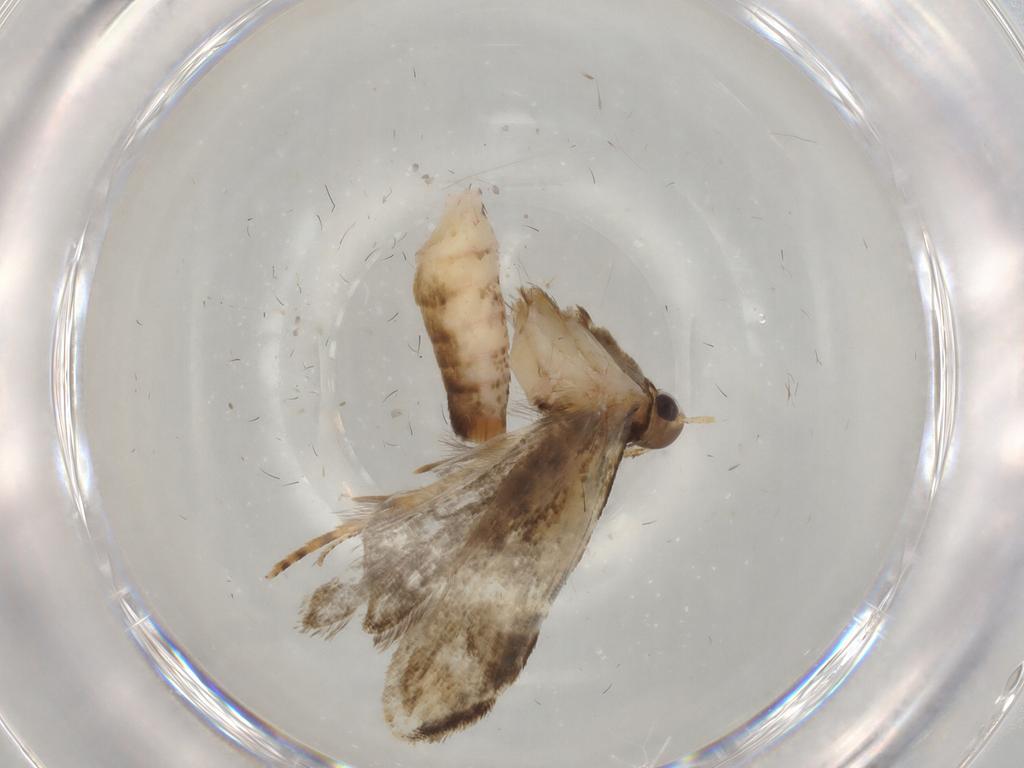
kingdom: Animalia
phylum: Arthropoda
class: Insecta
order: Lepidoptera
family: Gelechiidae
